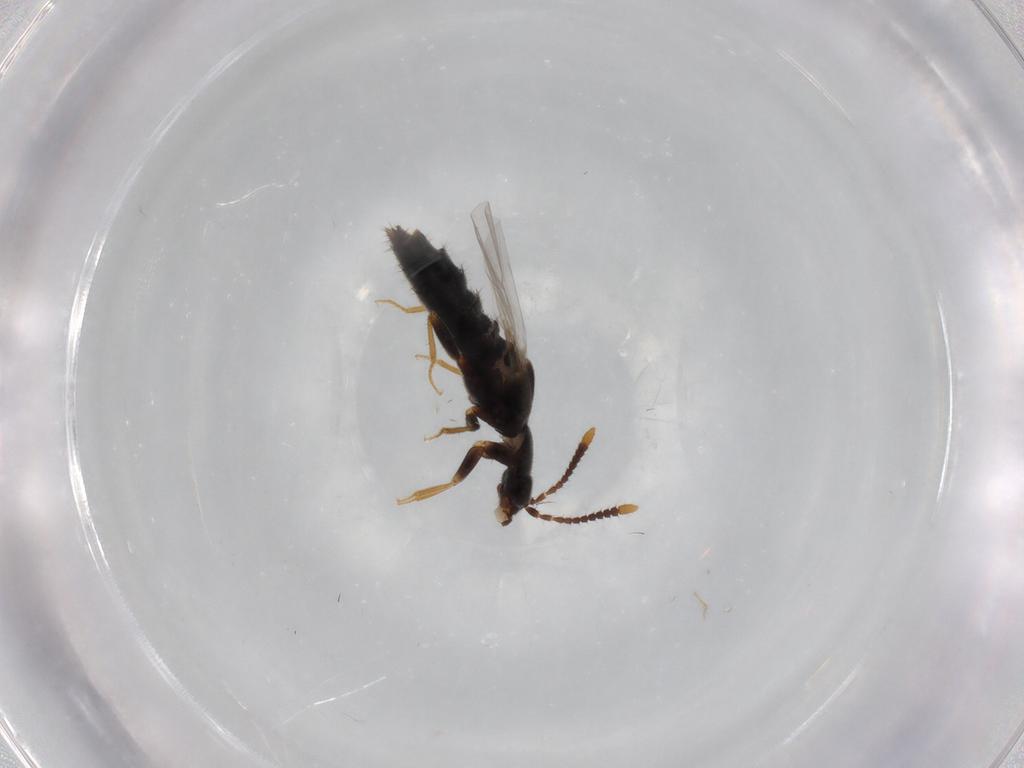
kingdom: Animalia
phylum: Arthropoda
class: Insecta
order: Coleoptera
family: Staphylinidae
